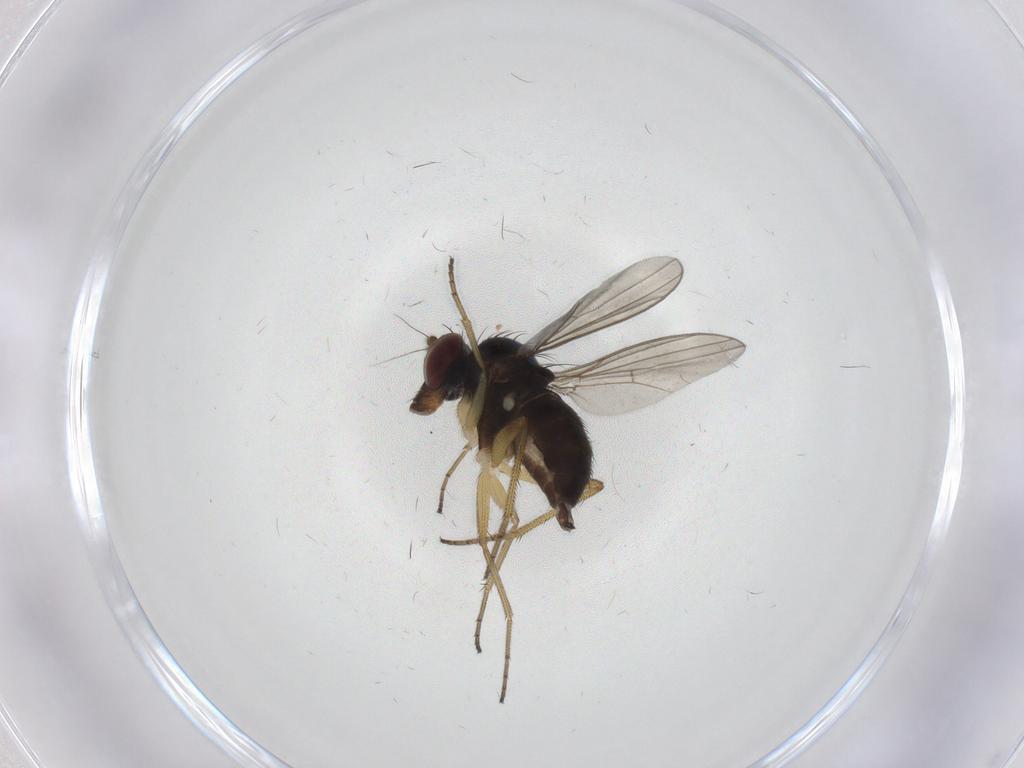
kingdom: Animalia
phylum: Arthropoda
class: Insecta
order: Diptera
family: Dolichopodidae
